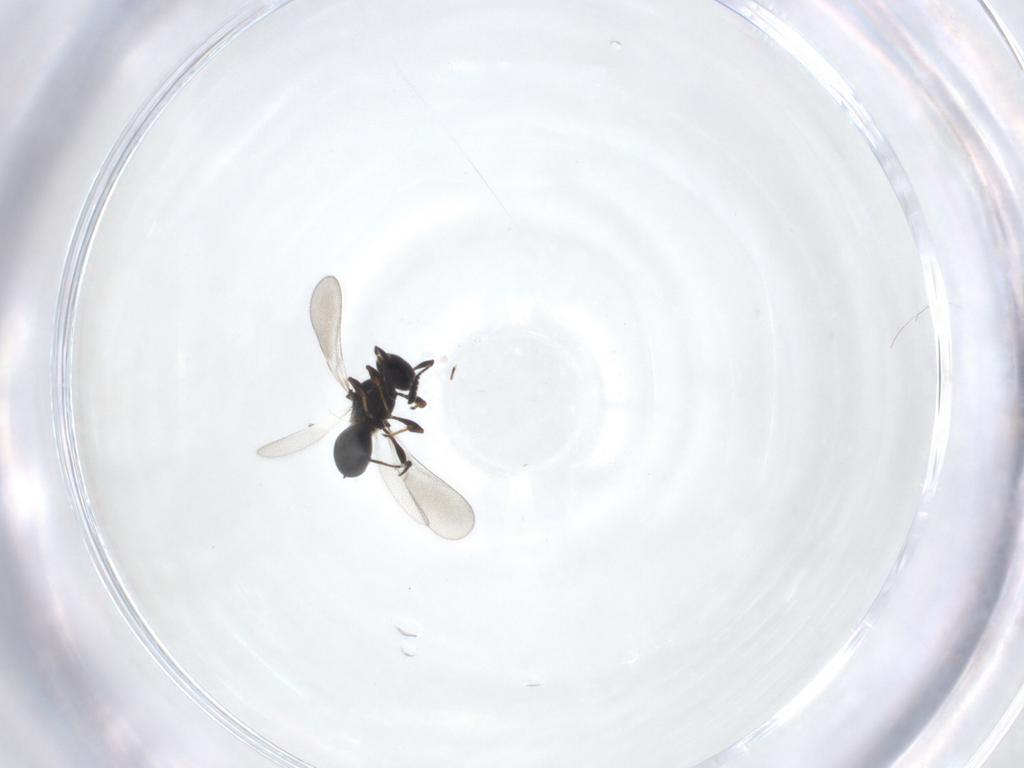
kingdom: Animalia
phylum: Arthropoda
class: Insecta
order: Hymenoptera
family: Platygastridae
